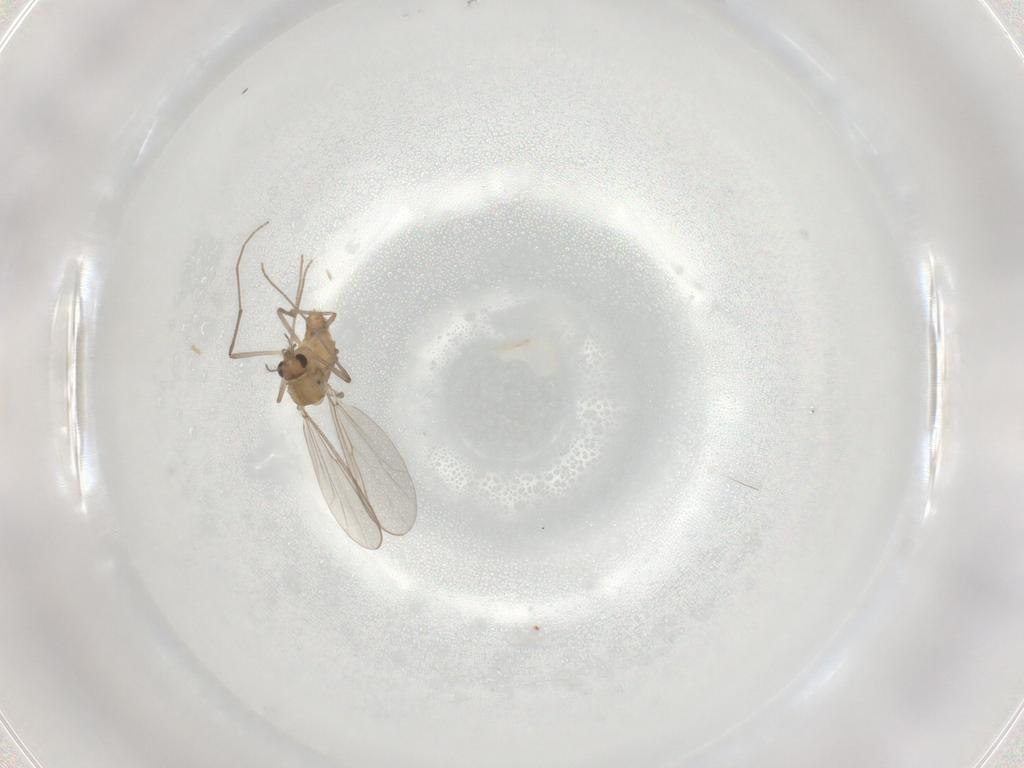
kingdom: Animalia
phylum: Arthropoda
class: Insecta
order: Diptera
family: Chironomidae
